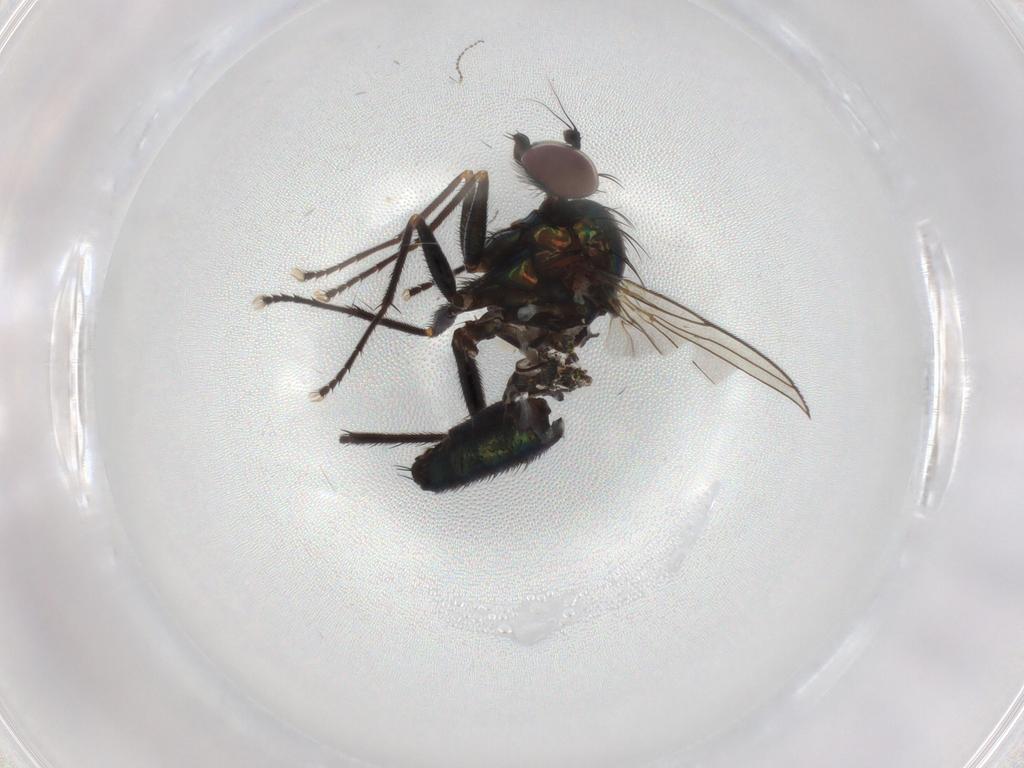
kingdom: Animalia
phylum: Arthropoda
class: Insecta
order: Diptera
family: Dolichopodidae
